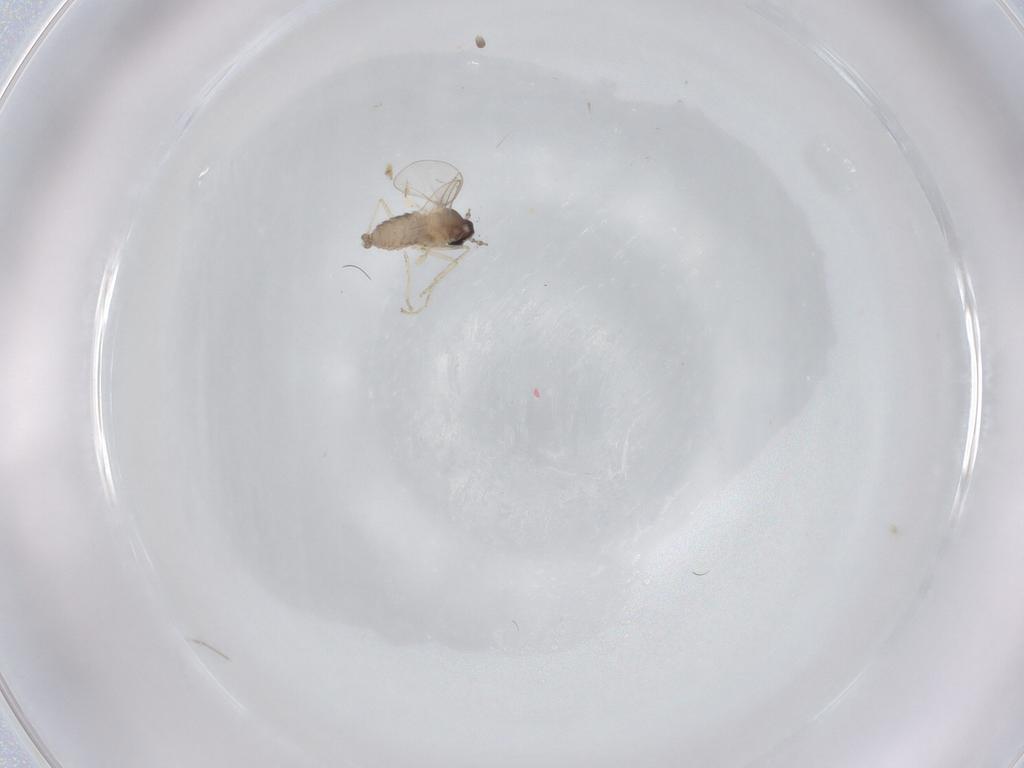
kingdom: Animalia
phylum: Arthropoda
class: Insecta
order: Diptera
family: Cecidomyiidae
